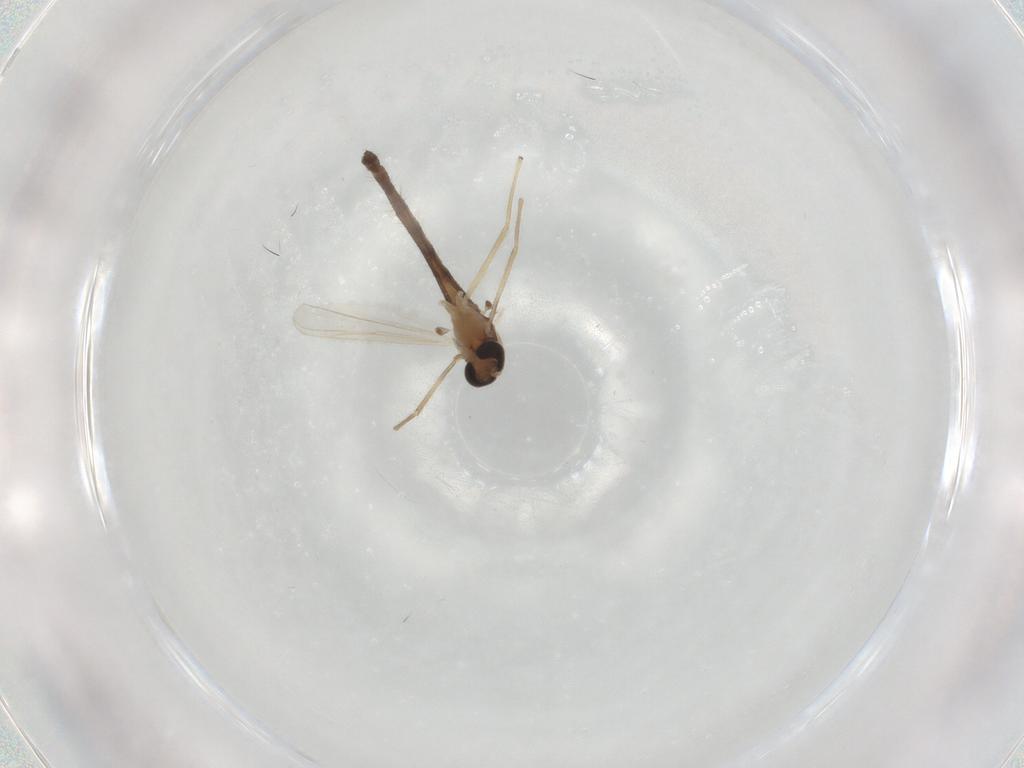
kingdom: Animalia
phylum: Arthropoda
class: Insecta
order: Diptera
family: Chironomidae
